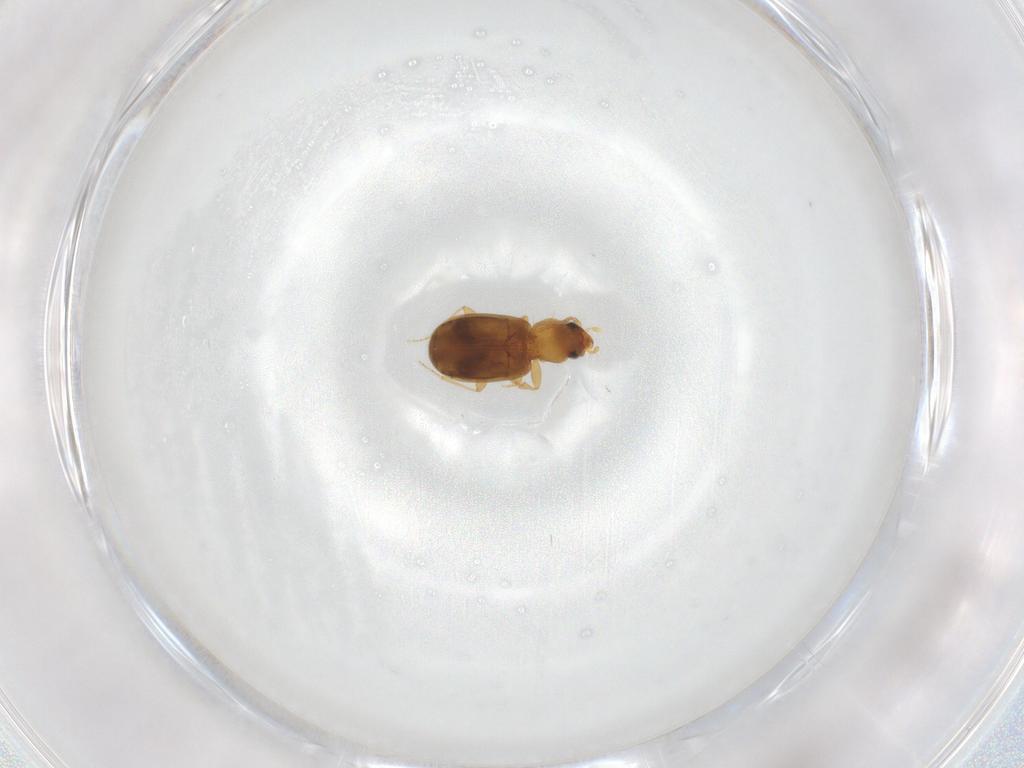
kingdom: Animalia
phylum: Arthropoda
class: Insecta
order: Coleoptera
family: Carabidae
